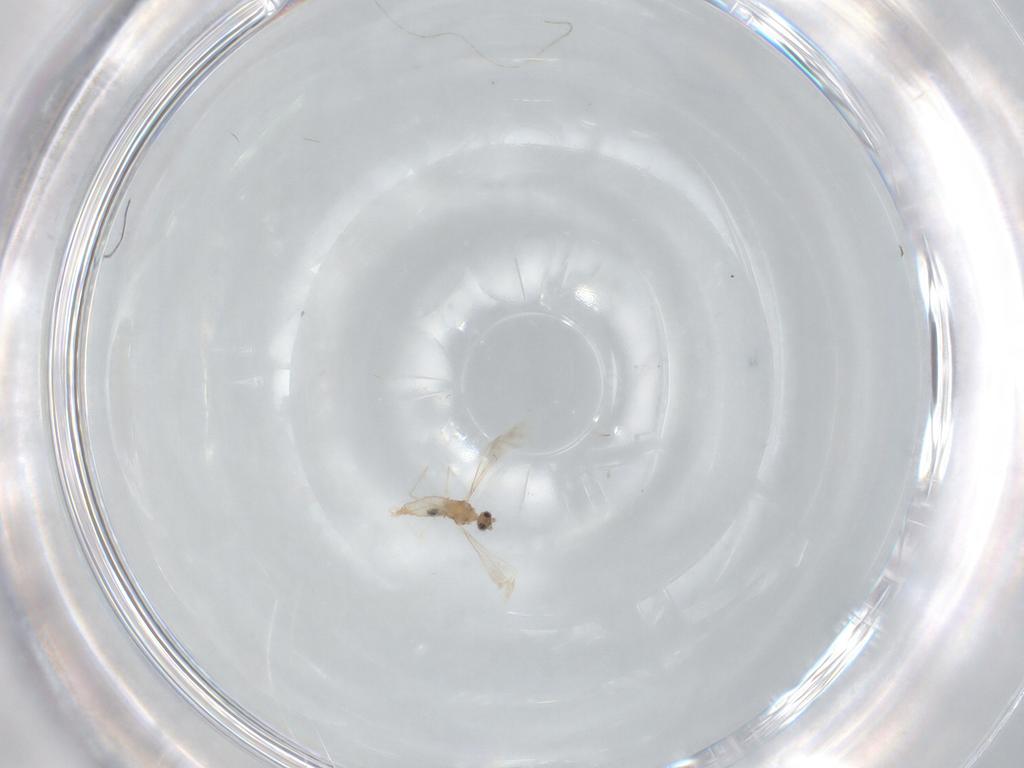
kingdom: Animalia
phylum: Arthropoda
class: Insecta
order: Diptera
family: Cecidomyiidae
